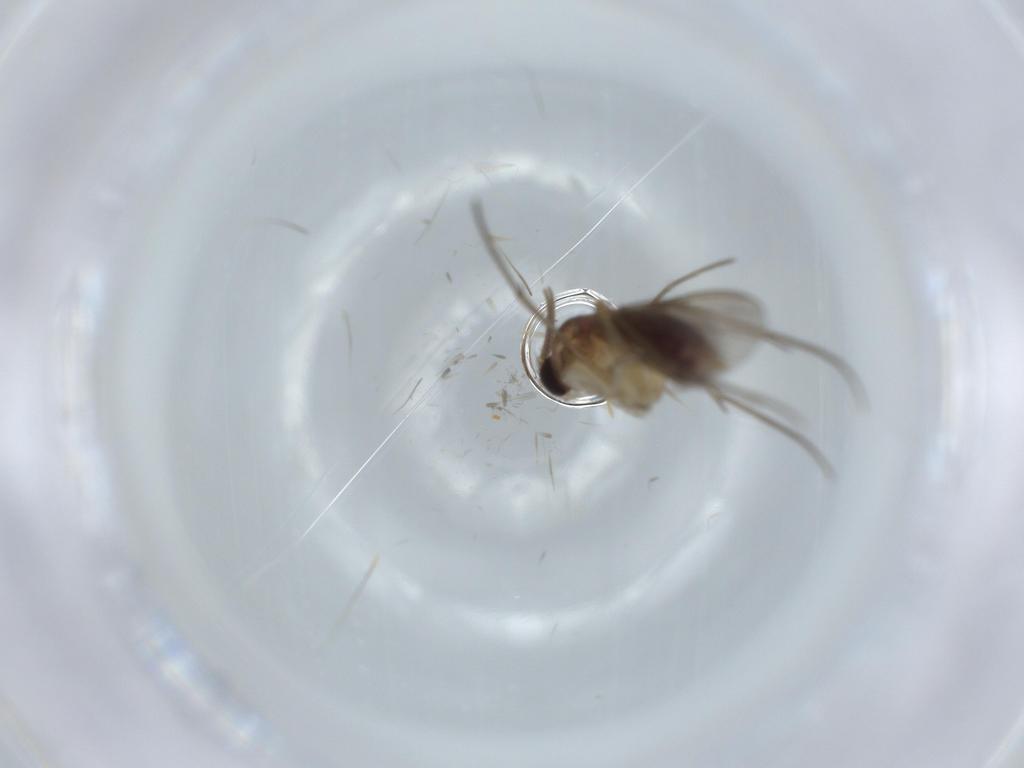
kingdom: Animalia
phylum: Arthropoda
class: Insecta
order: Diptera
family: Mycetophilidae
